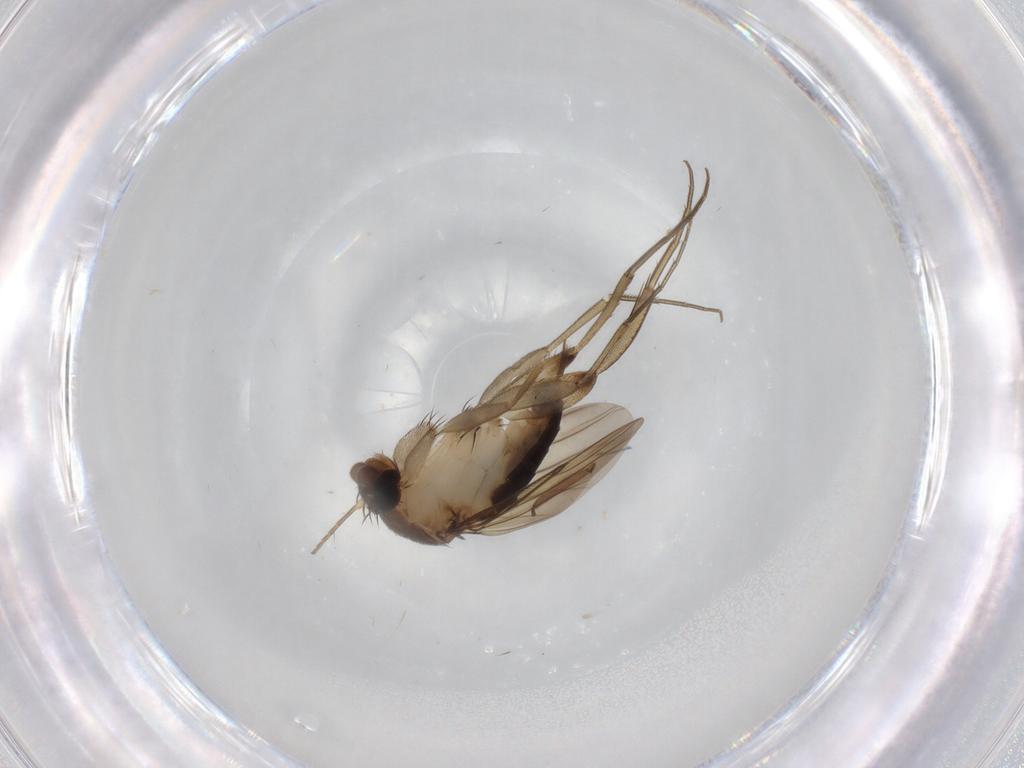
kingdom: Animalia
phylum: Arthropoda
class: Insecta
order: Diptera
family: Phoridae
